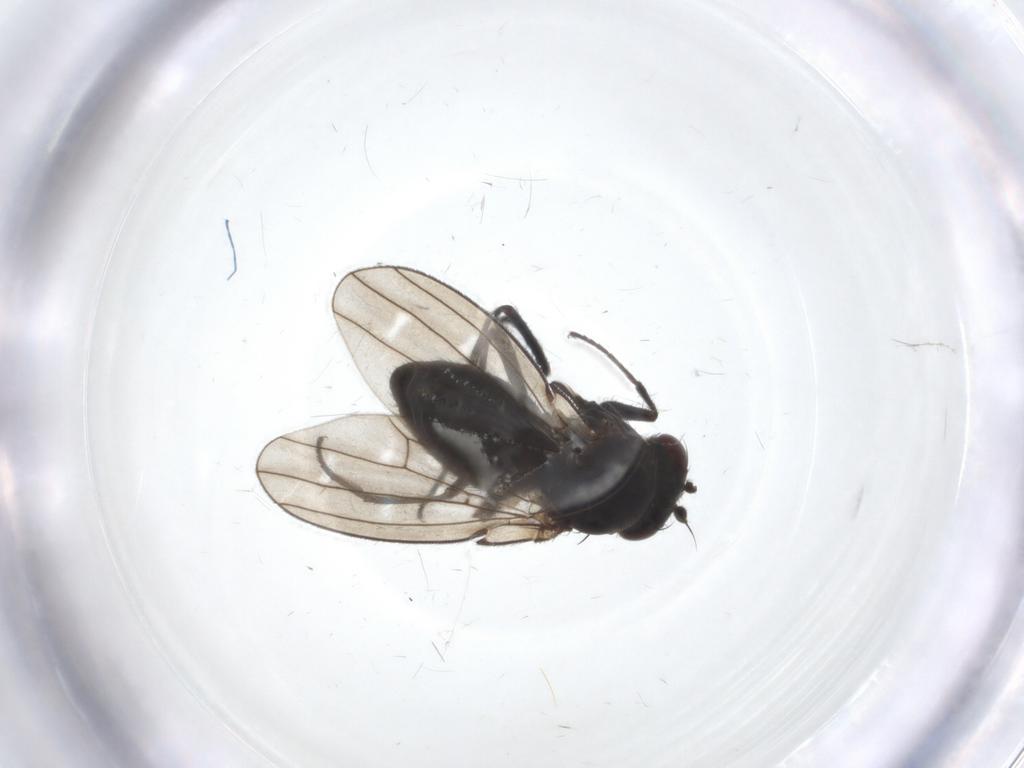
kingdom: Animalia
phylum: Arthropoda
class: Insecta
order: Diptera
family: Ephydridae
